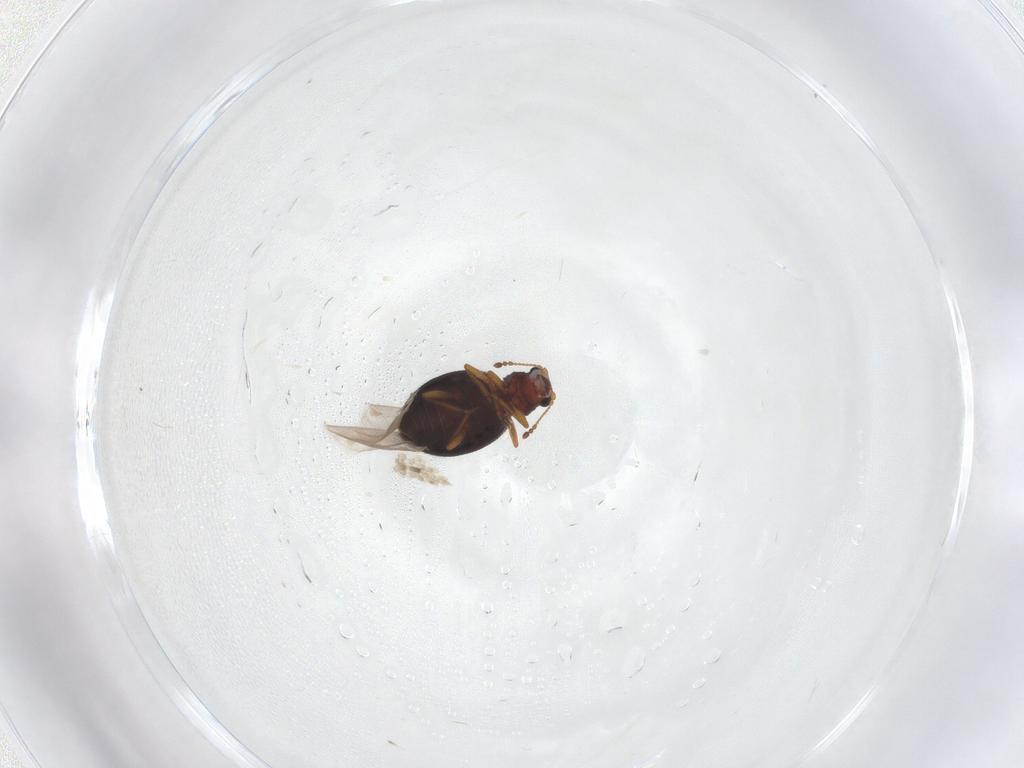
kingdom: Animalia
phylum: Arthropoda
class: Insecta
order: Coleoptera
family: Latridiidae
